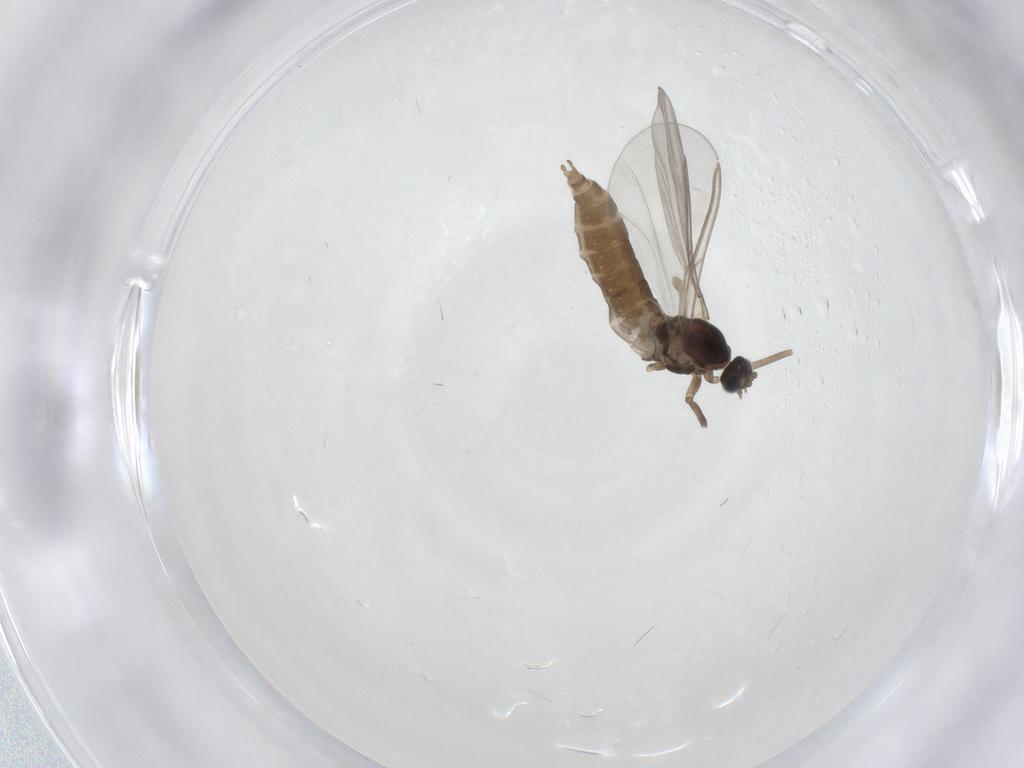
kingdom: Animalia
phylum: Arthropoda
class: Insecta
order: Diptera
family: Cecidomyiidae
